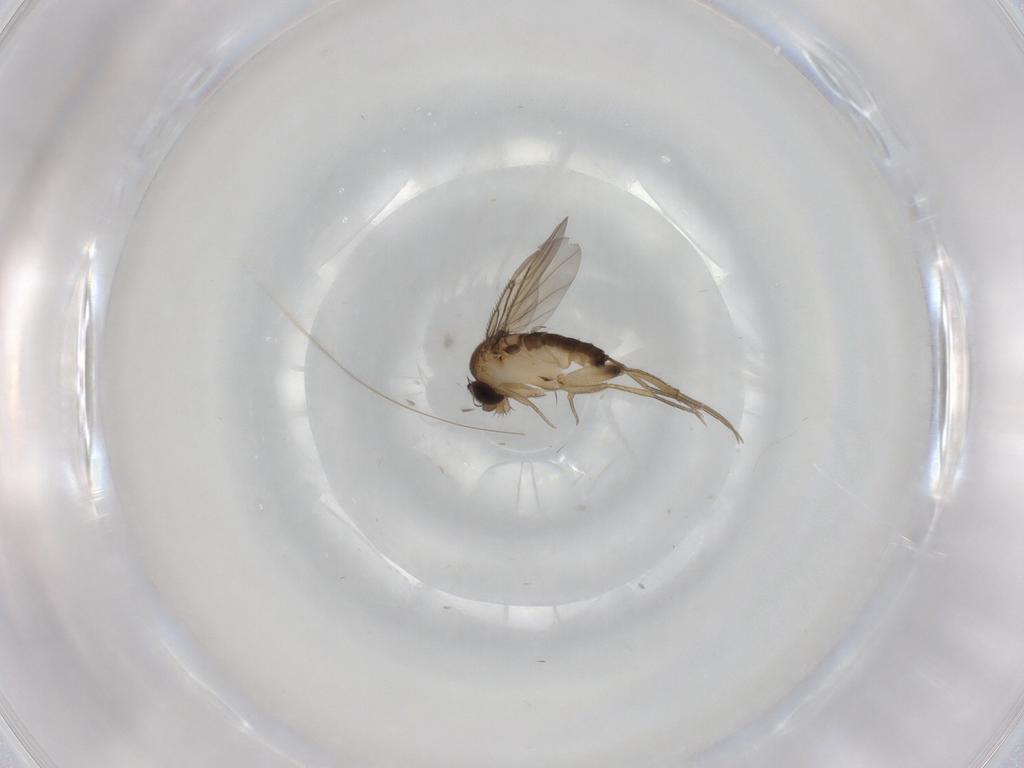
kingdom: Animalia
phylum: Arthropoda
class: Insecta
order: Diptera
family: Phoridae
